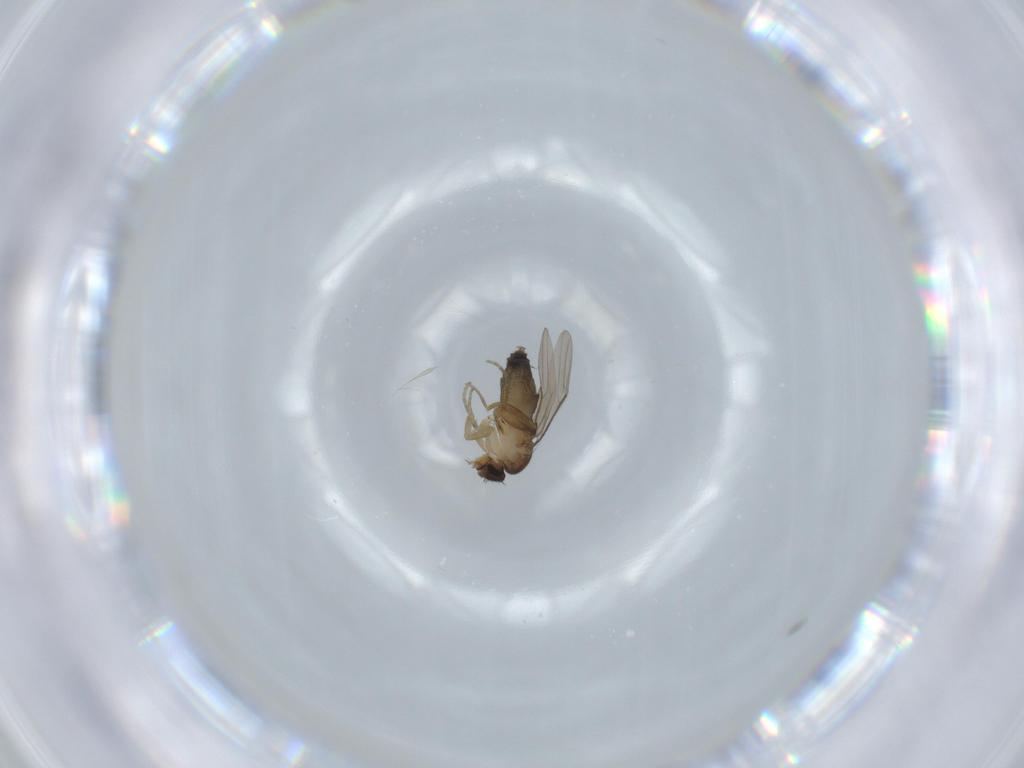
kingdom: Animalia
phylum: Arthropoda
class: Insecta
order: Diptera
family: Phoridae
